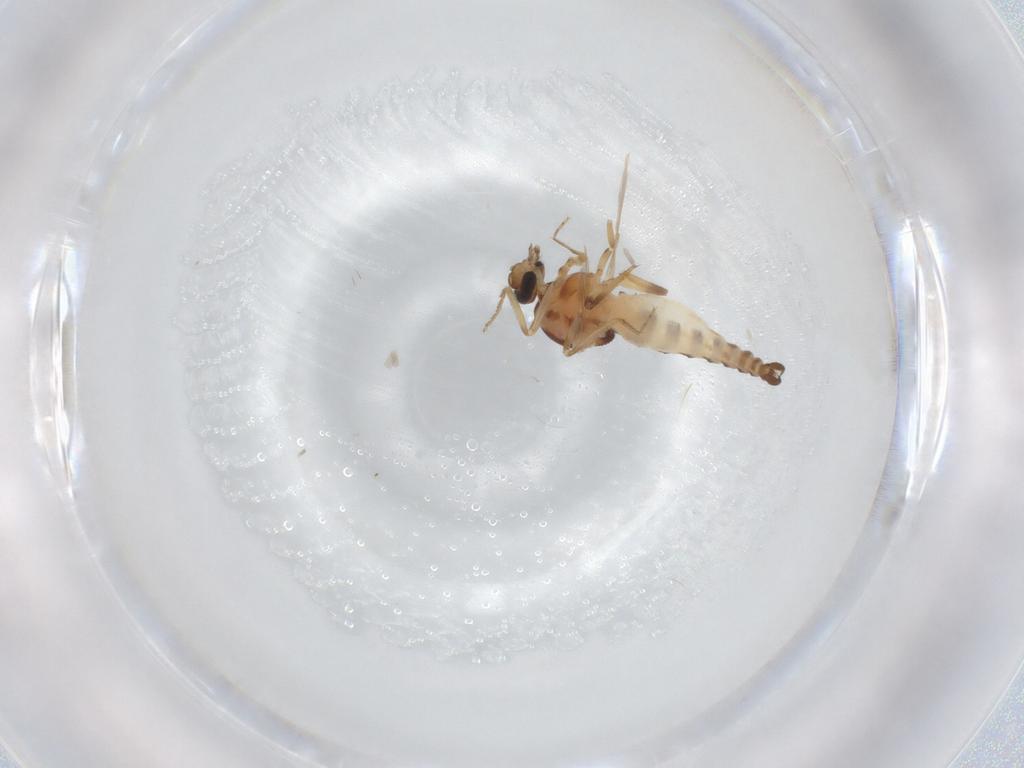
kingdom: Animalia
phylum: Arthropoda
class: Insecta
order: Diptera
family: Ceratopogonidae
